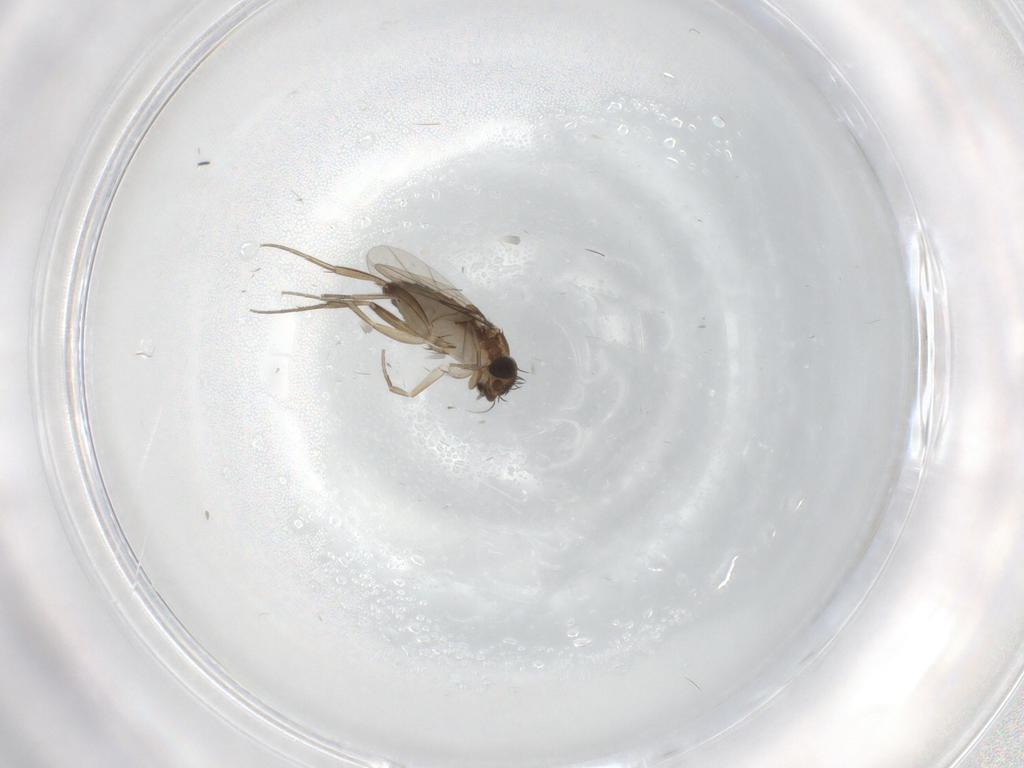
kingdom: Animalia
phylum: Arthropoda
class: Insecta
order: Diptera
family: Phoridae
